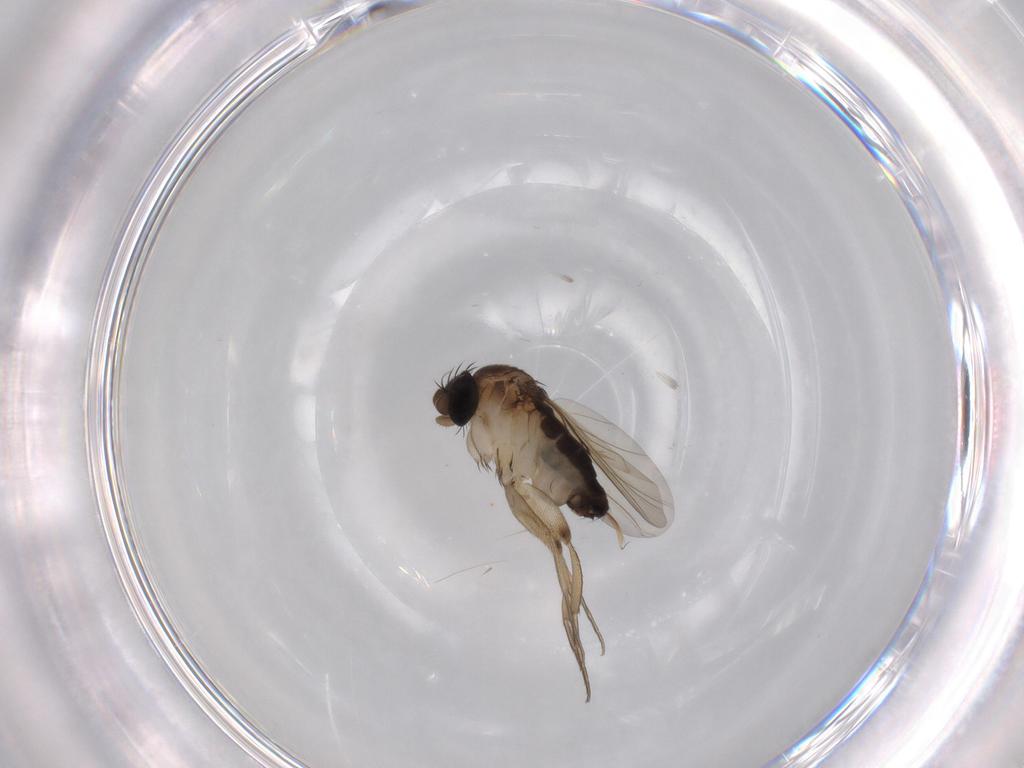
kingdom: Animalia
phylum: Arthropoda
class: Insecta
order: Diptera
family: Phoridae
